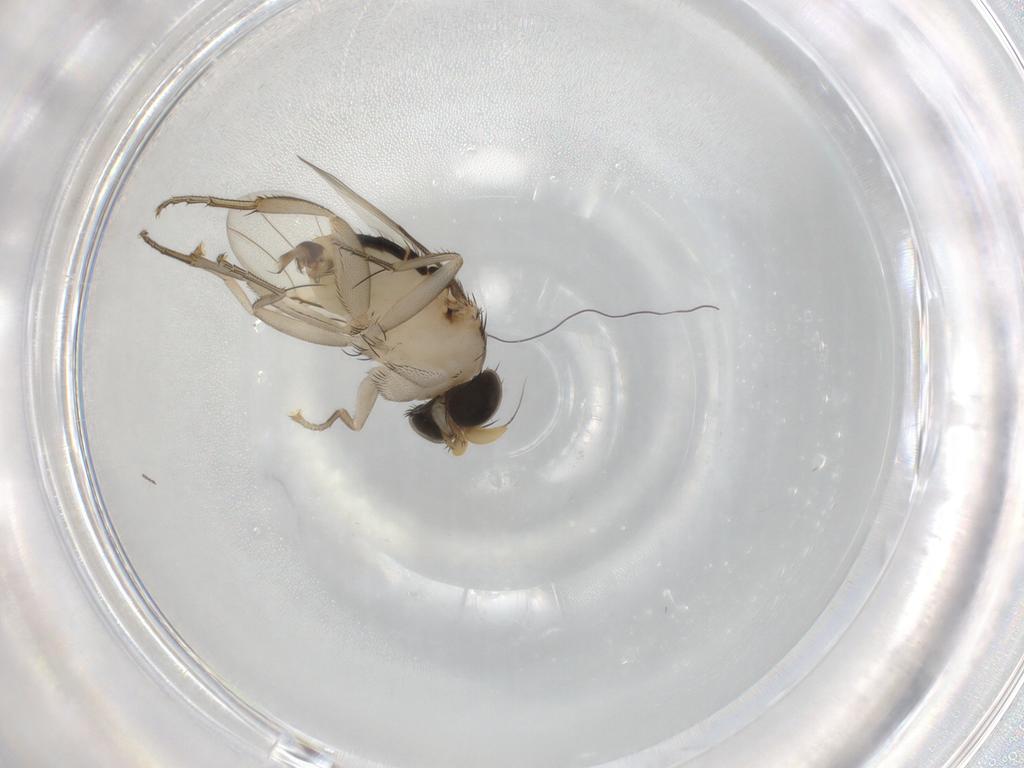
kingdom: Animalia
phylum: Arthropoda
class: Insecta
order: Diptera
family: Phoridae
